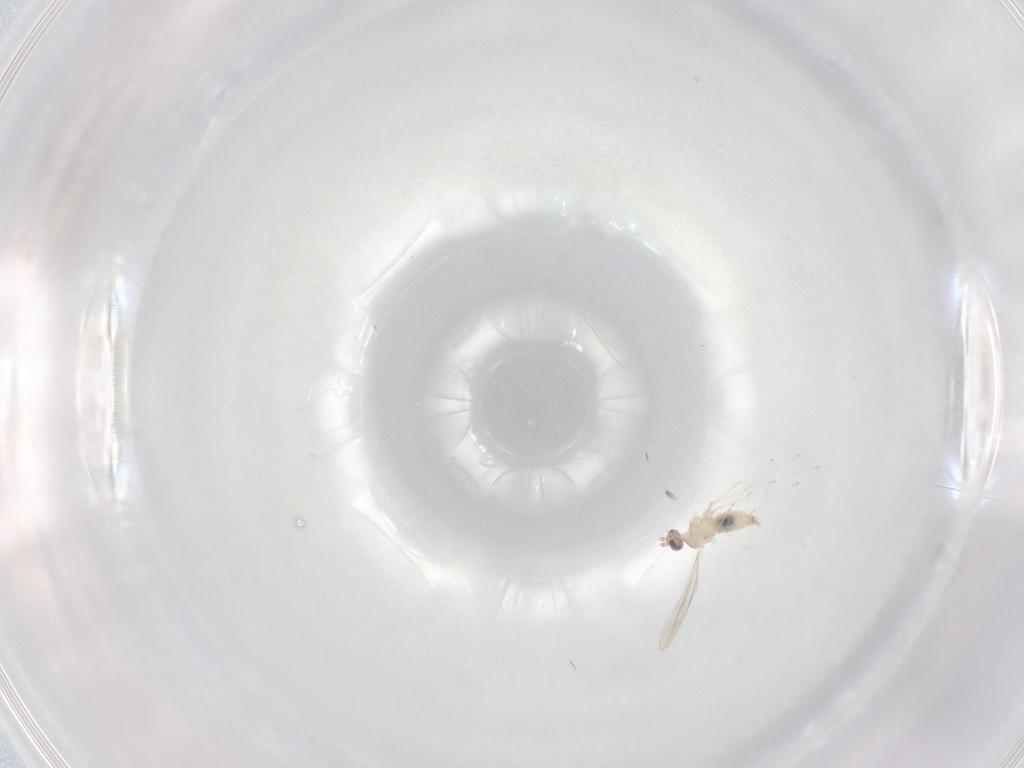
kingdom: Animalia
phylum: Arthropoda
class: Insecta
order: Diptera
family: Cecidomyiidae
